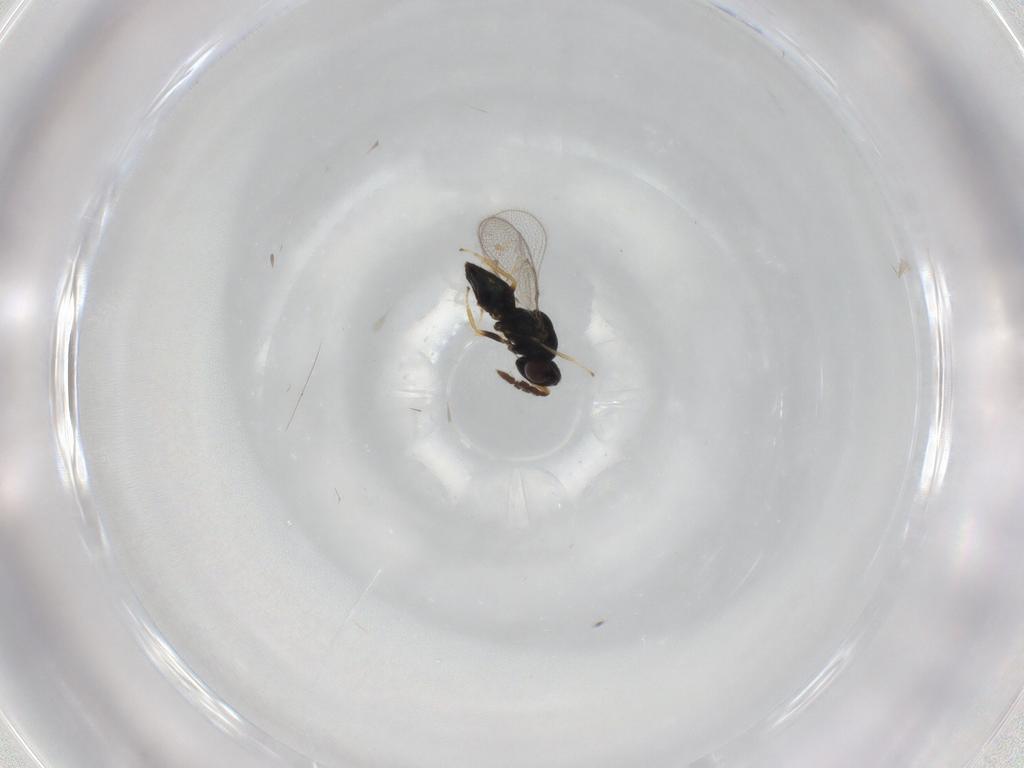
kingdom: Animalia
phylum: Arthropoda
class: Insecta
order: Hymenoptera
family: Eulophidae
